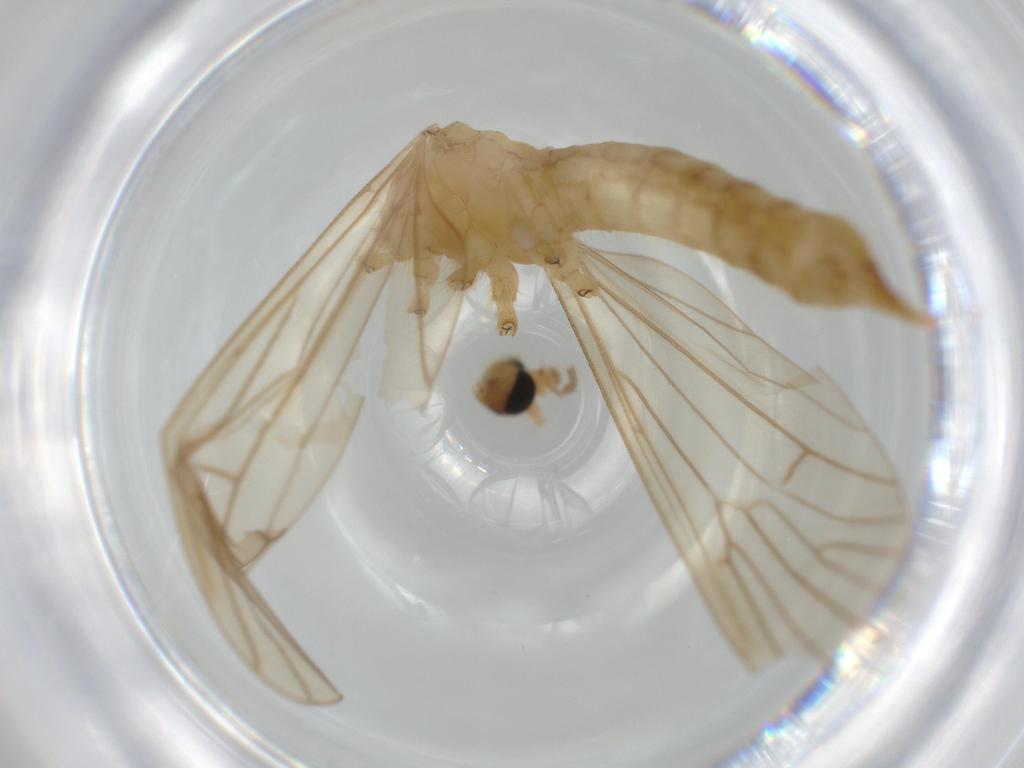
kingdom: Animalia
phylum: Arthropoda
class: Insecta
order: Diptera
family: Limoniidae
